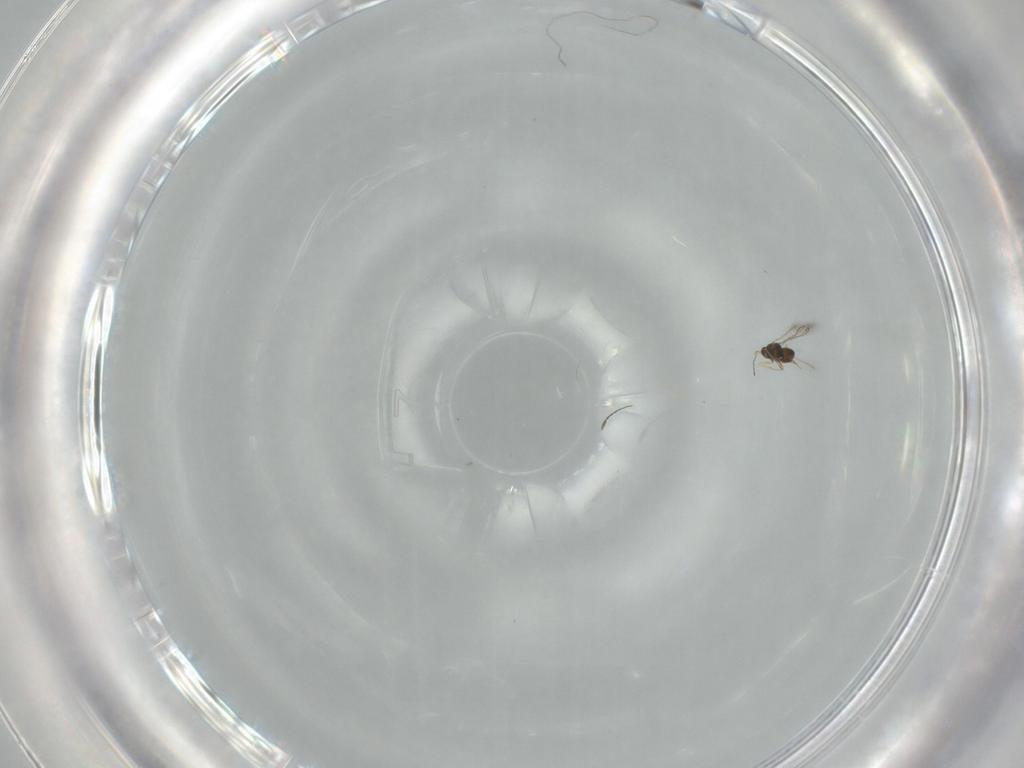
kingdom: Animalia
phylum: Arthropoda
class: Insecta
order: Hymenoptera
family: Mymaridae
